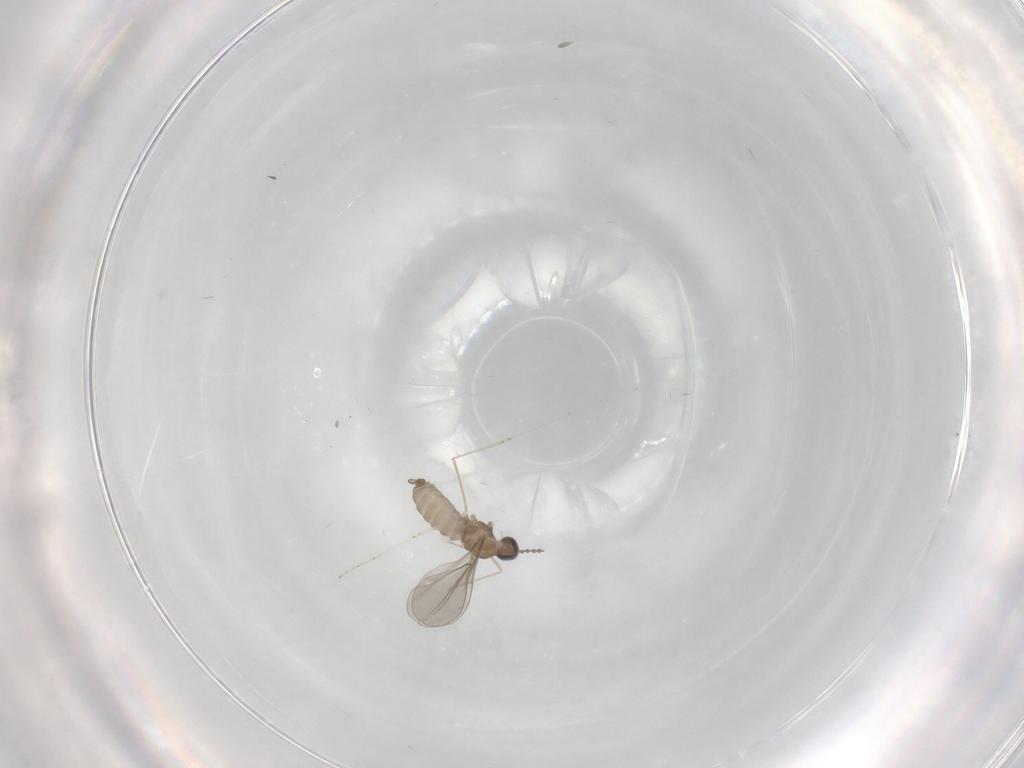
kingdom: Animalia
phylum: Arthropoda
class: Insecta
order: Diptera
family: Cecidomyiidae
